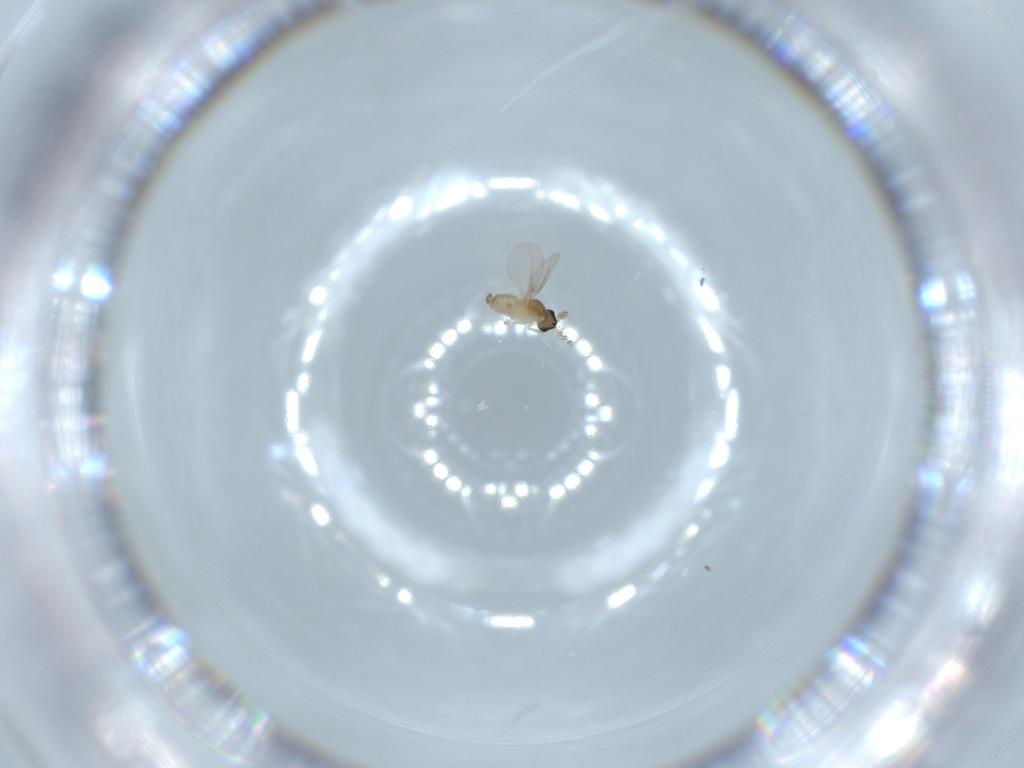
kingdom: Animalia
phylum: Arthropoda
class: Insecta
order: Diptera
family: Cecidomyiidae
